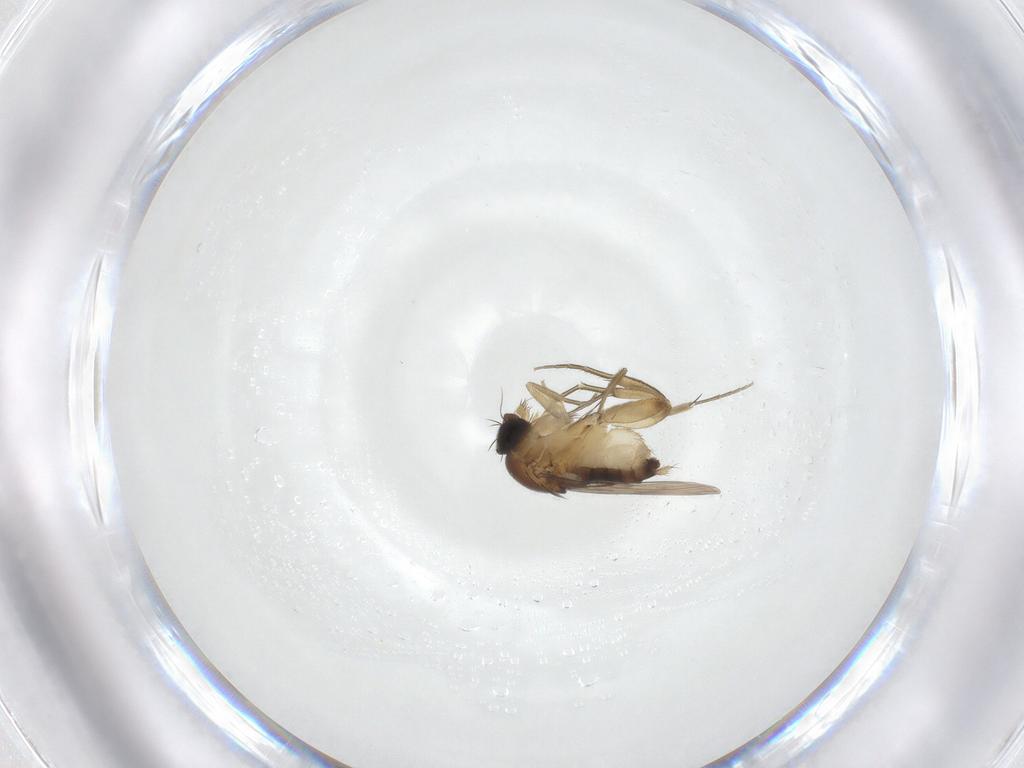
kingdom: Animalia
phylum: Arthropoda
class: Insecta
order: Diptera
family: Phoridae
